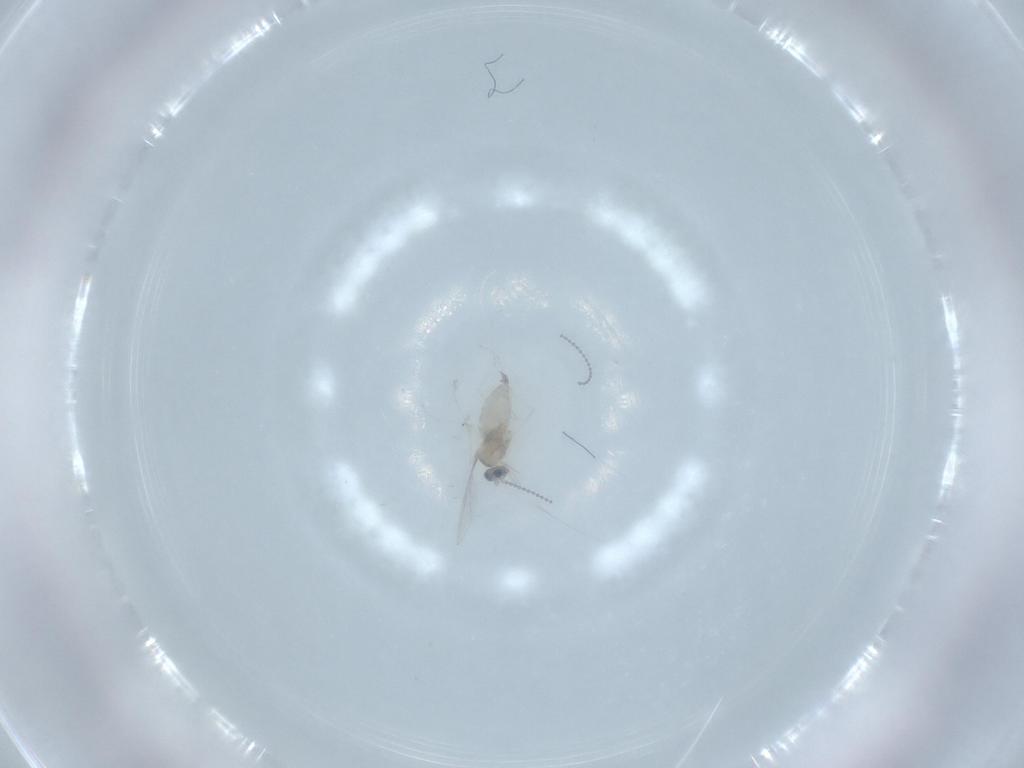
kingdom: Animalia
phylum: Arthropoda
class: Insecta
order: Diptera
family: Cecidomyiidae
